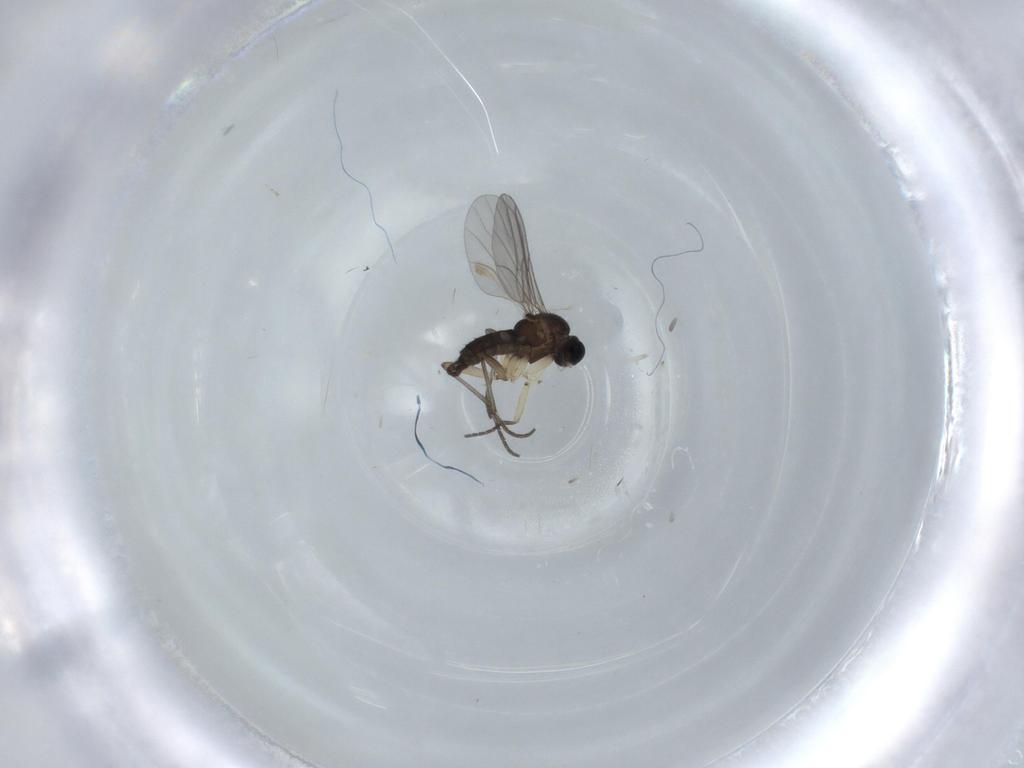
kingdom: Animalia
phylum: Arthropoda
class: Insecta
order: Diptera
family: Sciaridae
